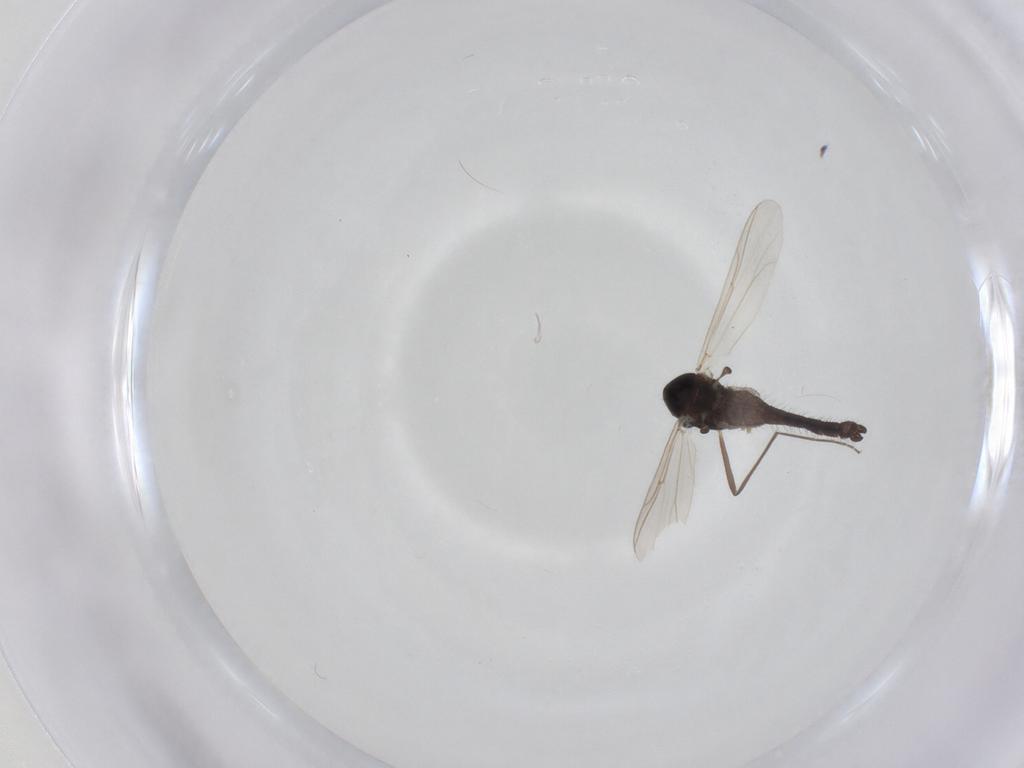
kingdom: Animalia
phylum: Arthropoda
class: Insecta
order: Diptera
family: Chironomidae
